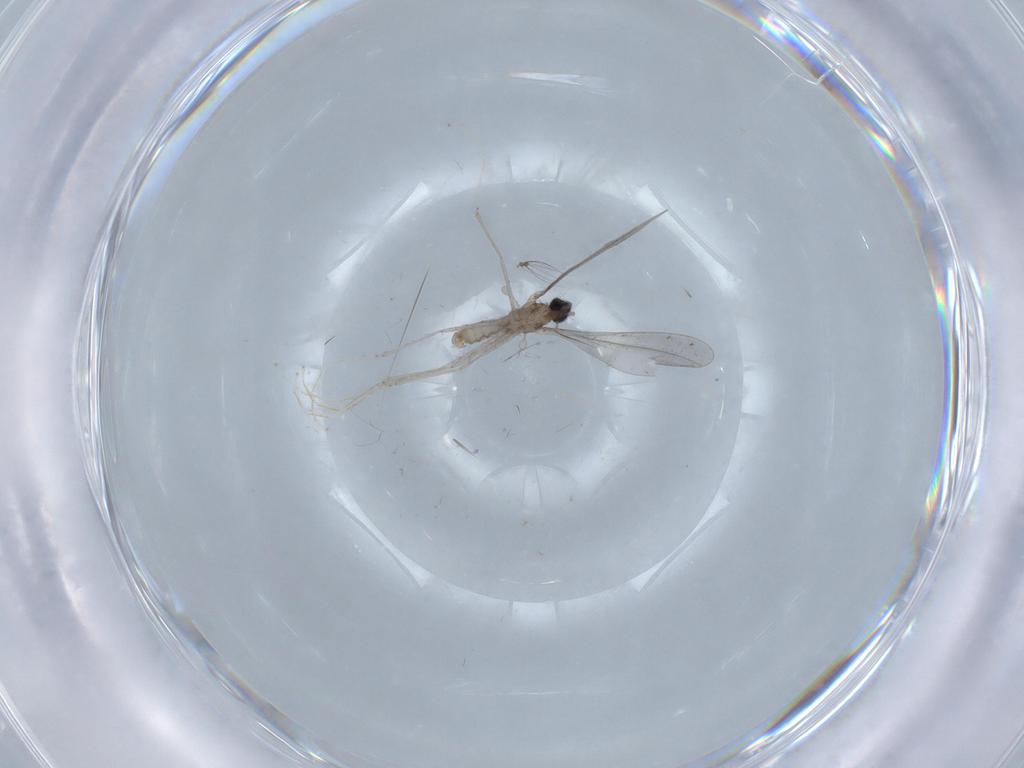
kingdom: Animalia
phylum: Arthropoda
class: Insecta
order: Diptera
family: Cecidomyiidae
